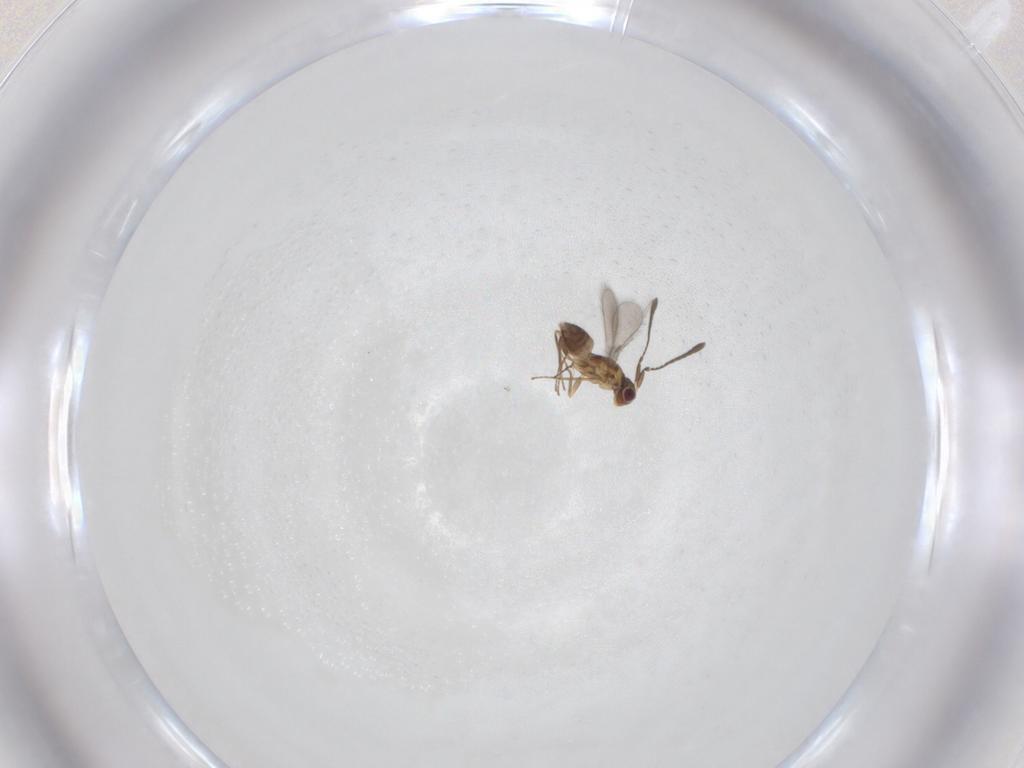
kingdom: Animalia
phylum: Arthropoda
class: Insecta
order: Hymenoptera
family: Mymaridae
